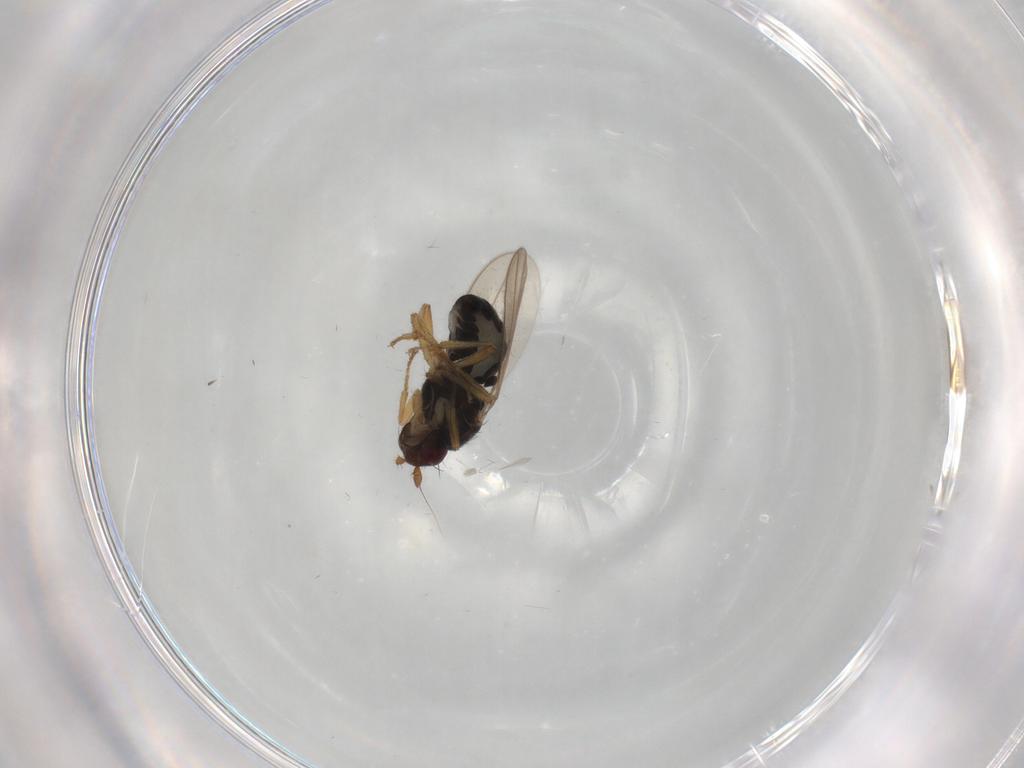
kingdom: Animalia
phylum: Arthropoda
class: Insecta
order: Diptera
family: Sphaeroceridae
